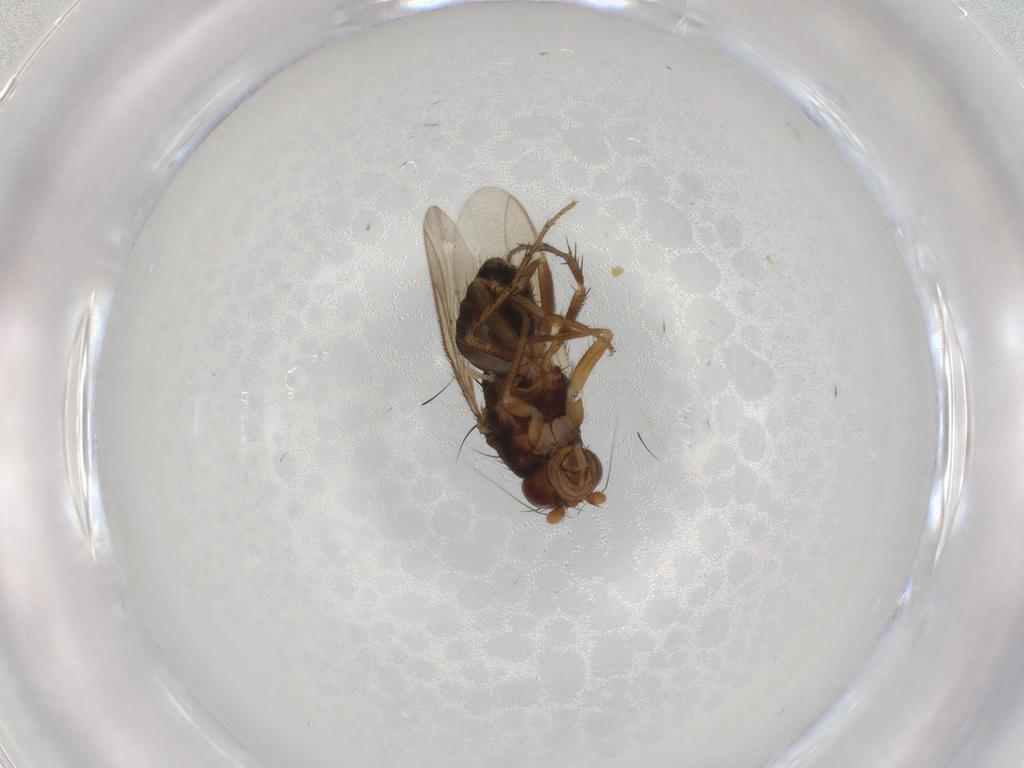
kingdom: Animalia
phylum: Arthropoda
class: Insecta
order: Diptera
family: Sphaeroceridae
